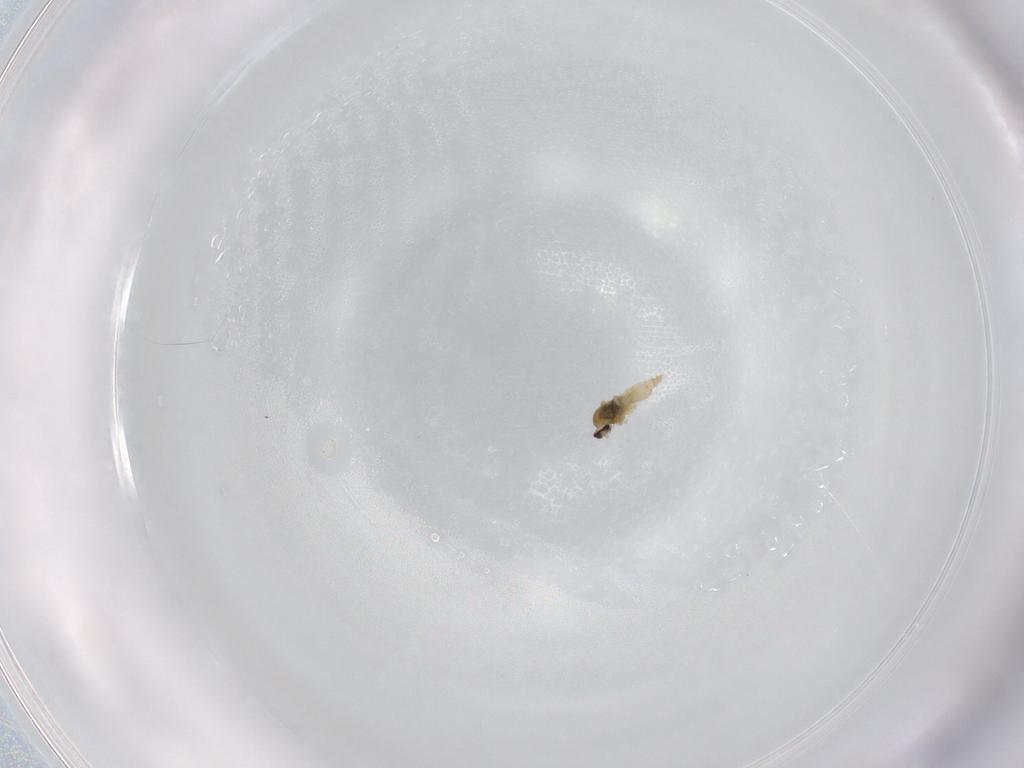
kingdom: Animalia
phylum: Arthropoda
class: Insecta
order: Diptera
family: Cecidomyiidae
